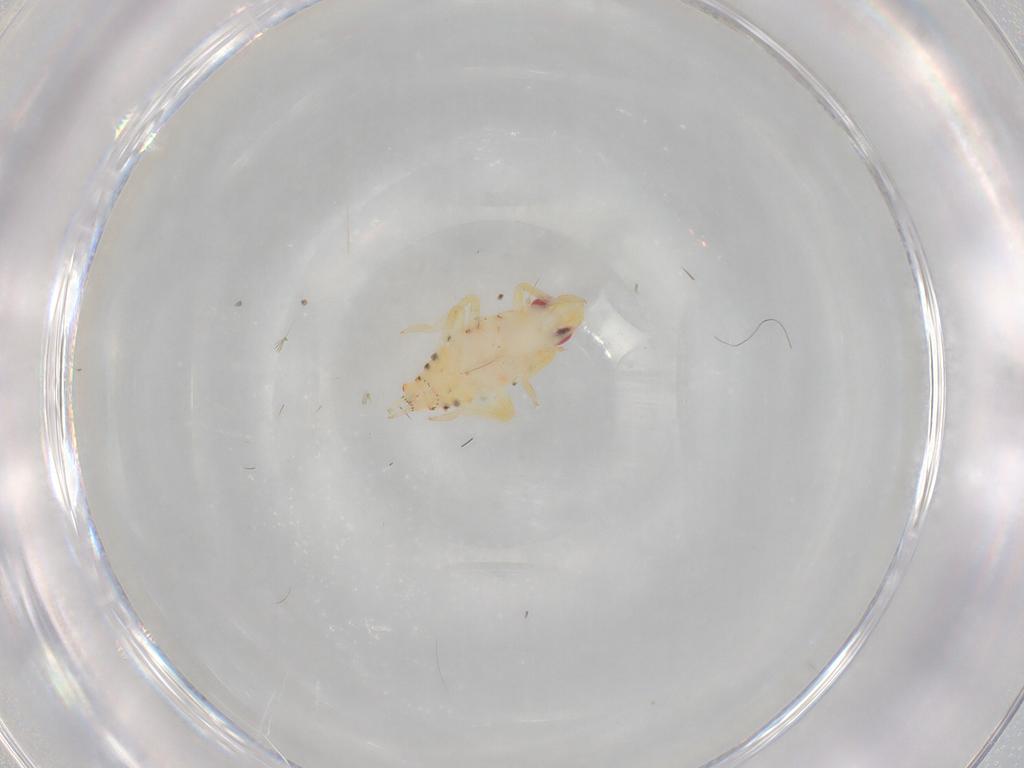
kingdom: Animalia
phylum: Arthropoda
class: Insecta
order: Hemiptera
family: Tropiduchidae
